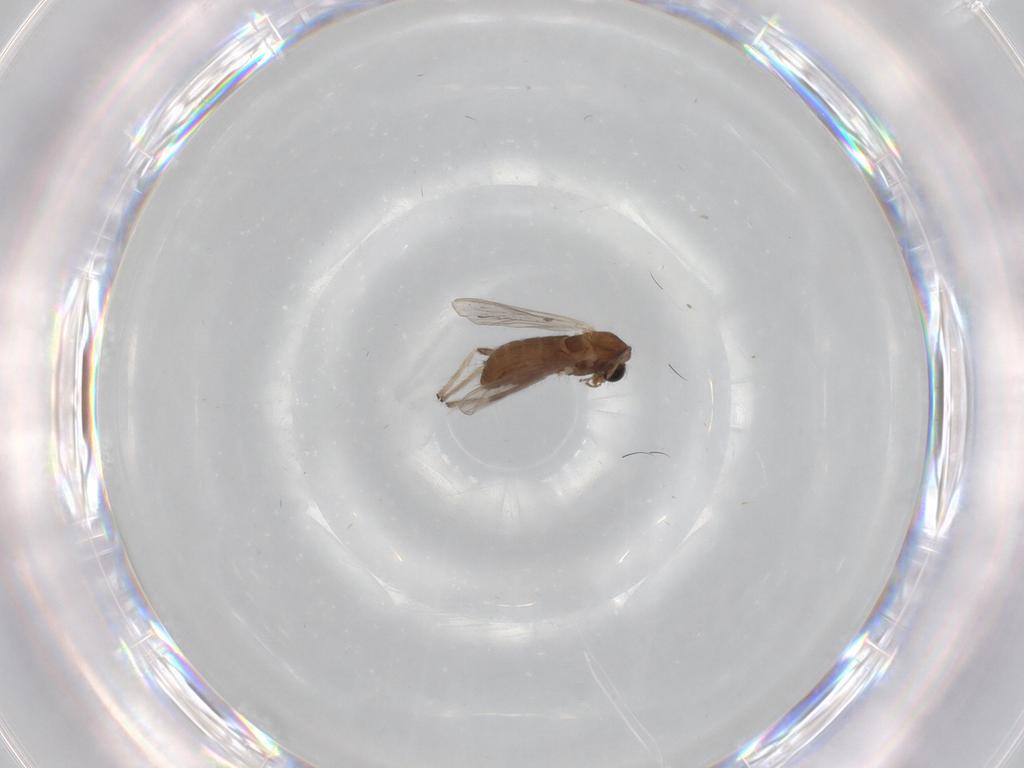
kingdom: Animalia
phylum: Arthropoda
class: Insecta
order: Diptera
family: Chironomidae
